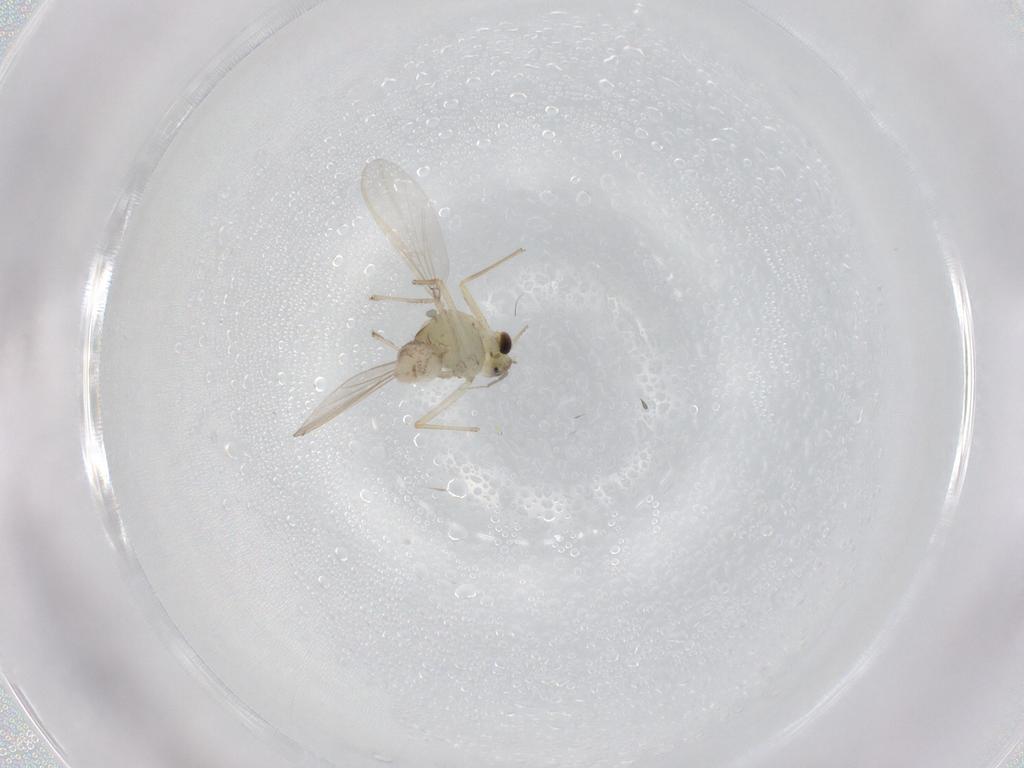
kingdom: Animalia
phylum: Arthropoda
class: Insecta
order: Diptera
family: Chironomidae
